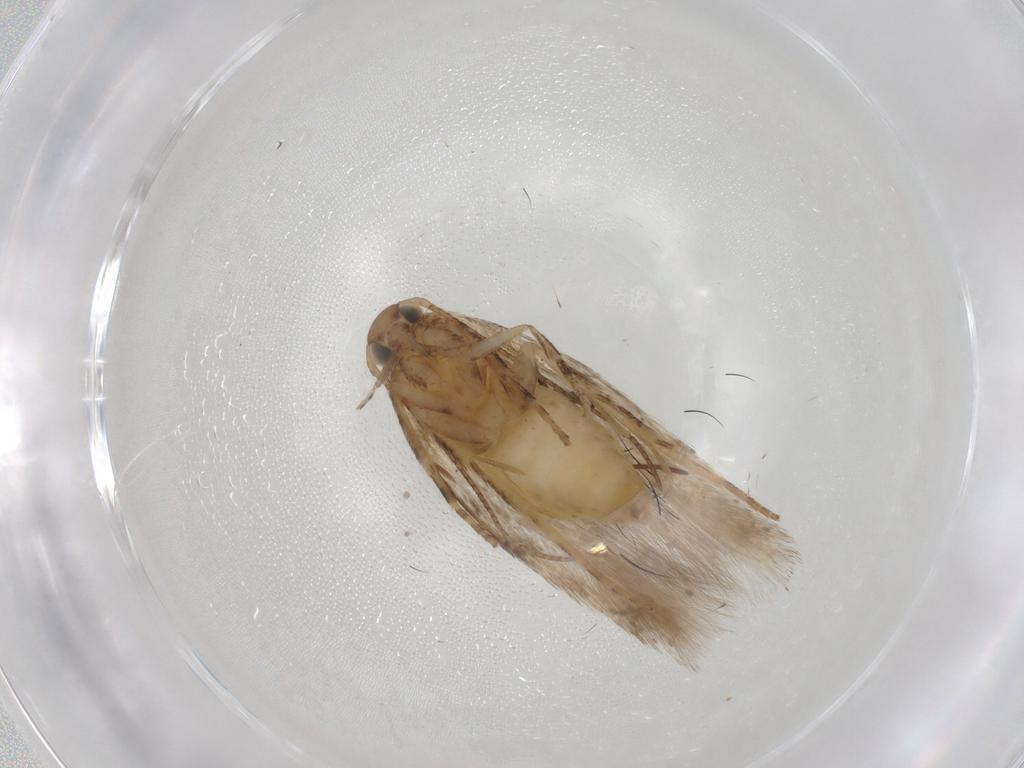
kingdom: Animalia
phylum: Arthropoda
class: Insecta
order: Lepidoptera
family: Gelechiidae
